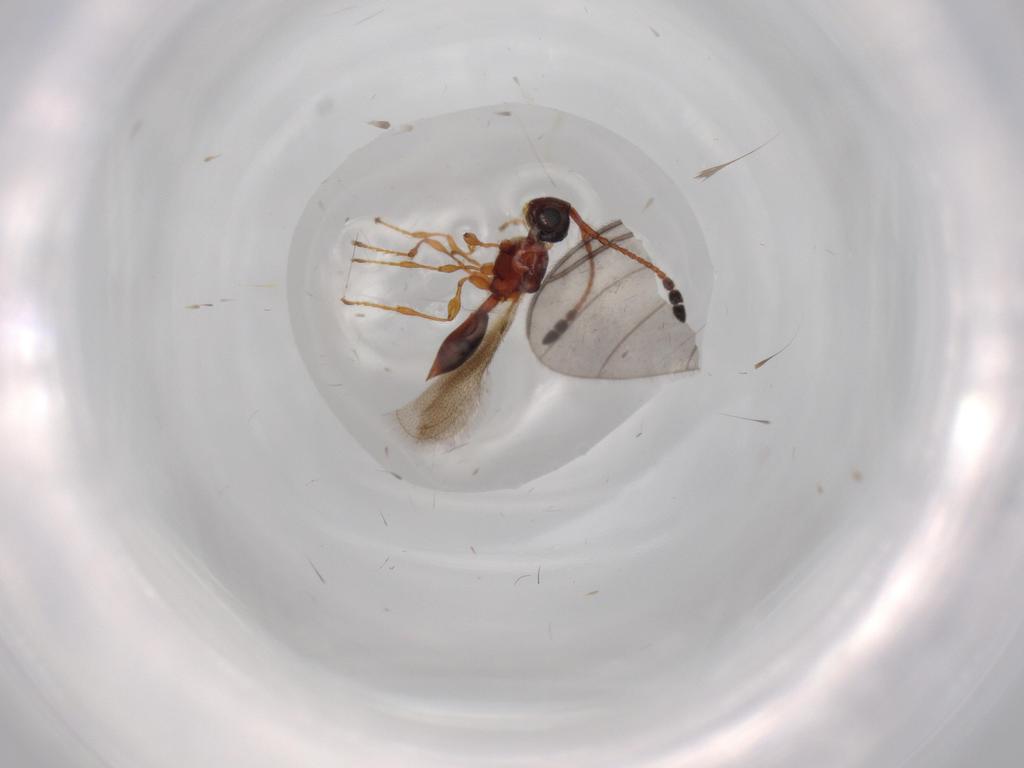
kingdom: Animalia
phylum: Arthropoda
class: Insecta
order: Hymenoptera
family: Diapriidae
